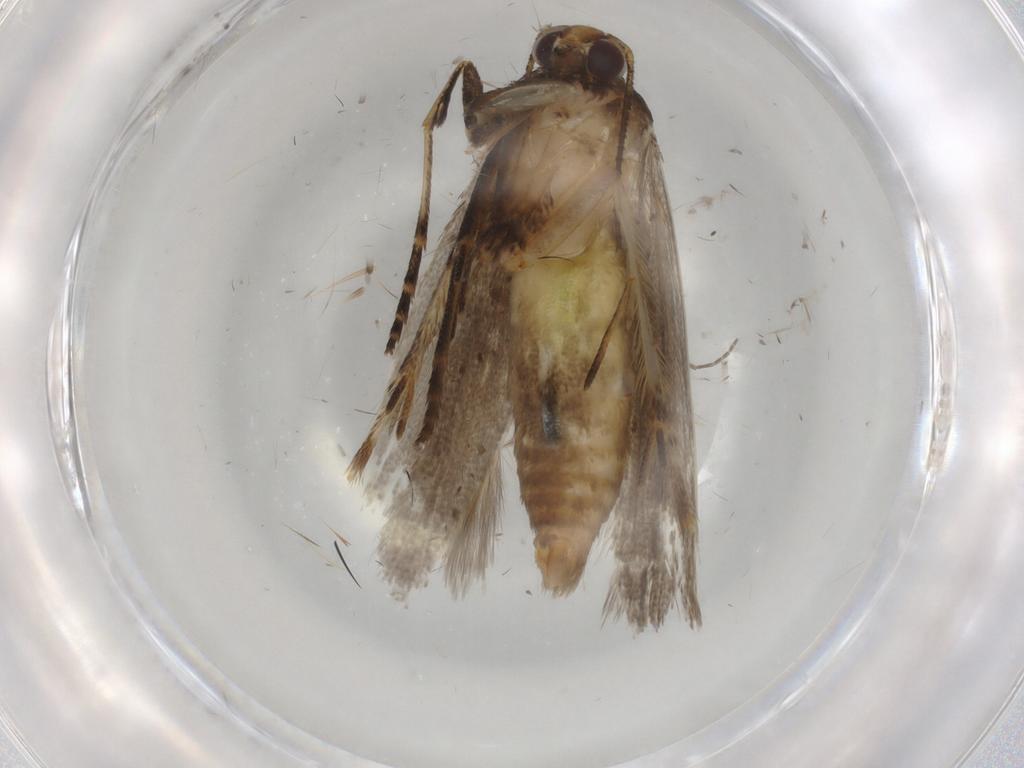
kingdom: Animalia
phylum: Arthropoda
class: Insecta
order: Lepidoptera
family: Epermeniidae
